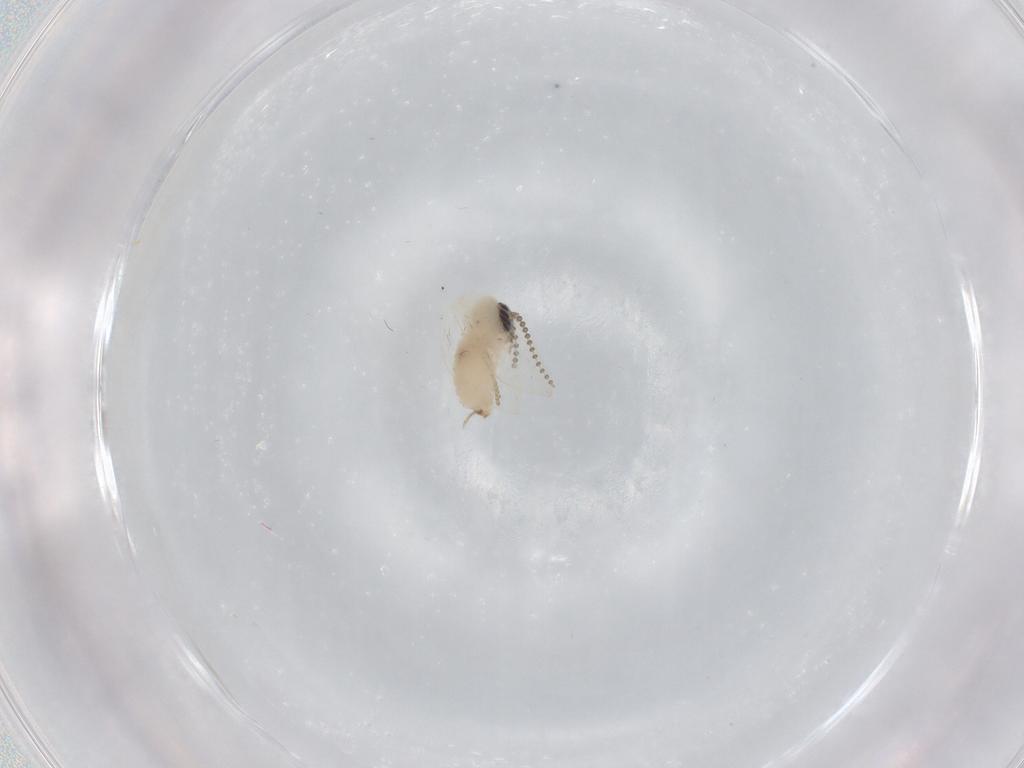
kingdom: Animalia
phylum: Arthropoda
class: Insecta
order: Diptera
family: Psychodidae
